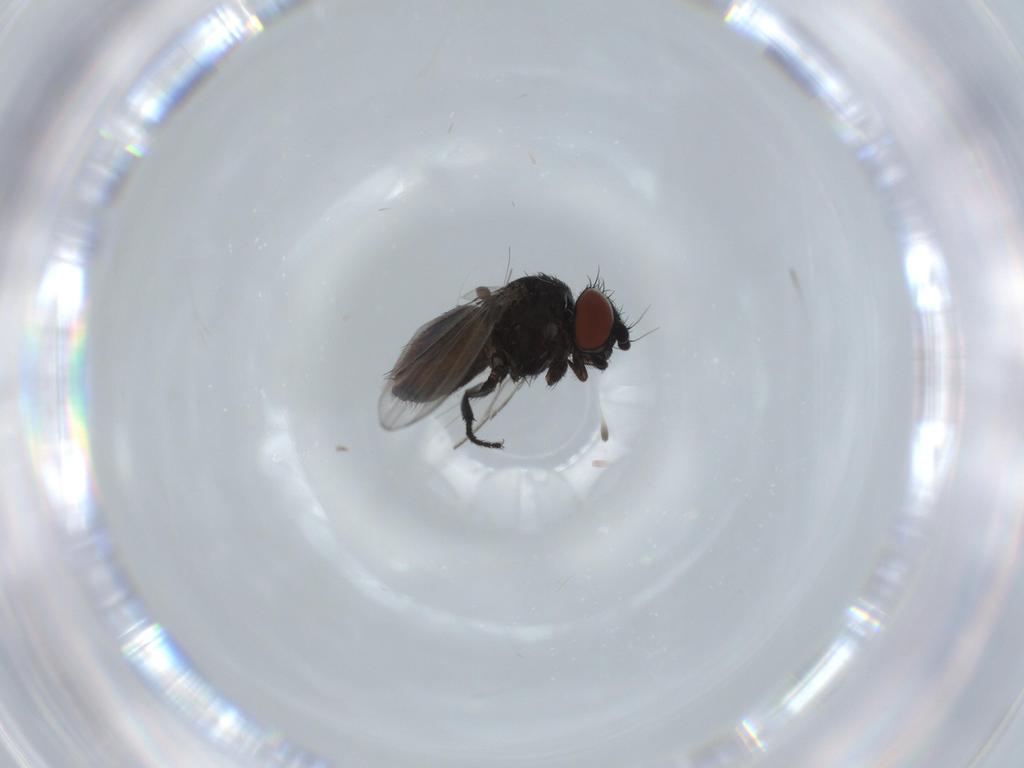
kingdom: Animalia
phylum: Arthropoda
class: Insecta
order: Diptera
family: Milichiidae
